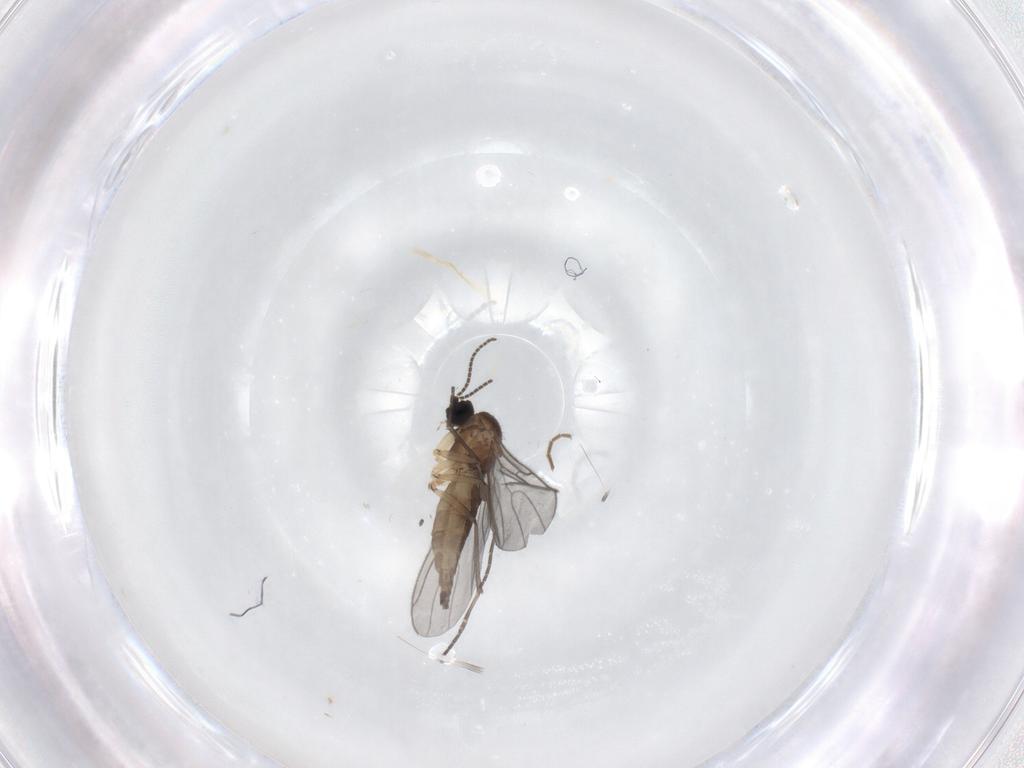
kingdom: Animalia
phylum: Arthropoda
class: Insecta
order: Diptera
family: Sciaridae
